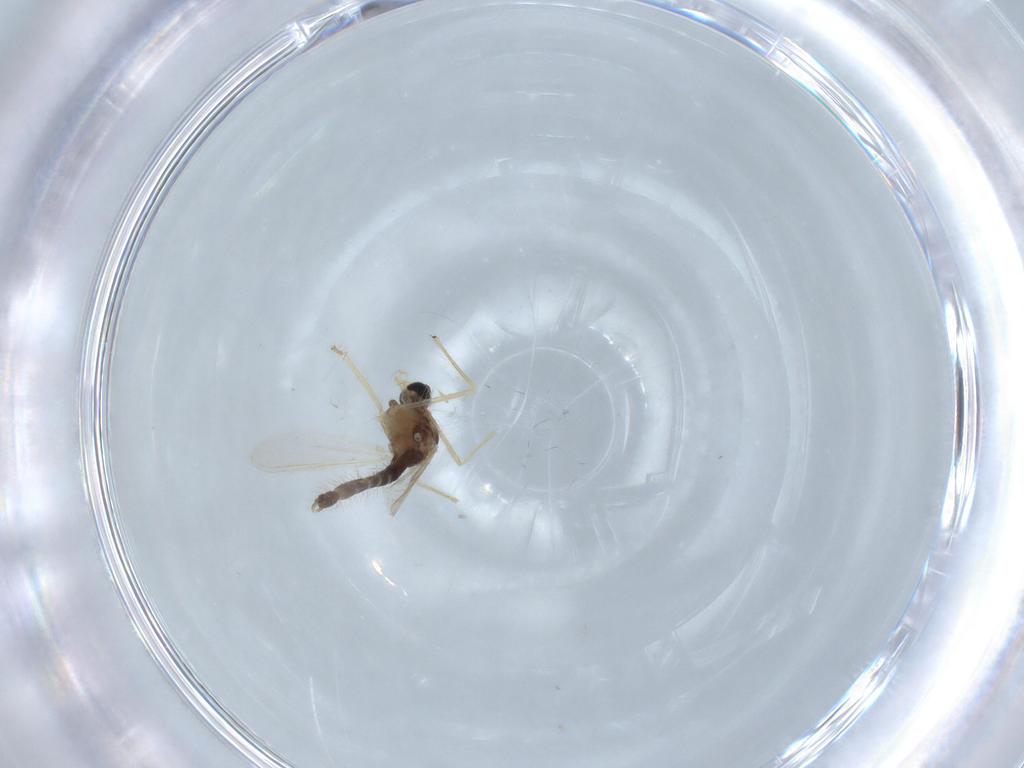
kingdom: Animalia
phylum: Arthropoda
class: Insecta
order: Diptera
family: Chironomidae
